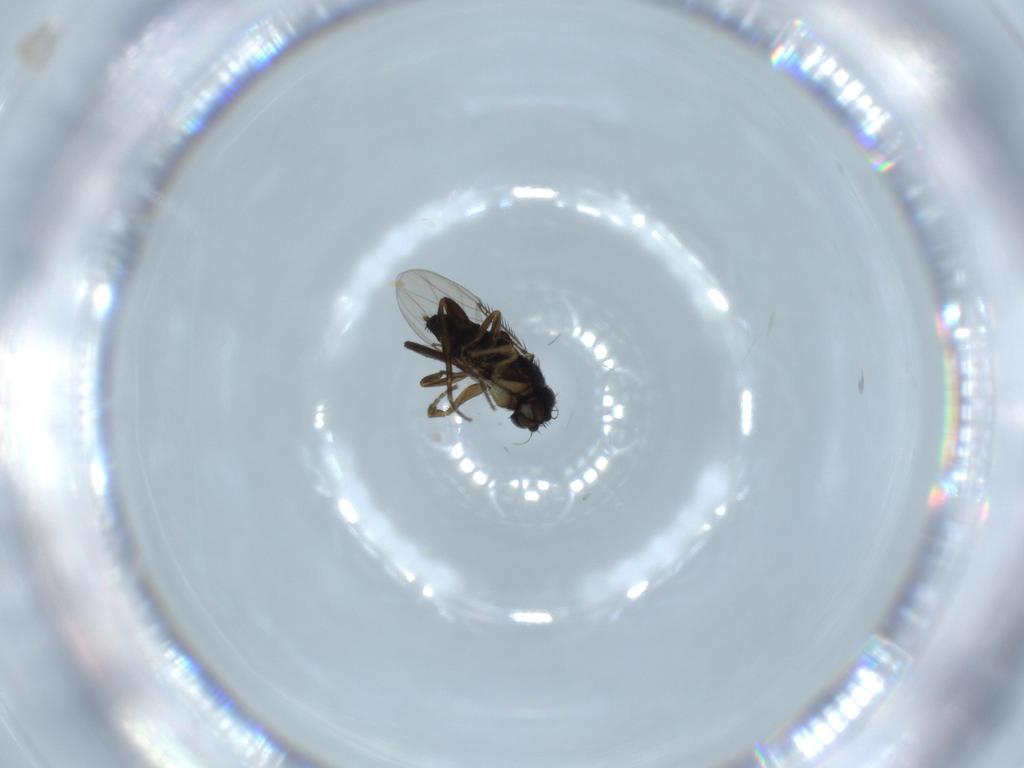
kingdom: Animalia
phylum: Arthropoda
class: Insecta
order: Diptera
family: Phoridae
